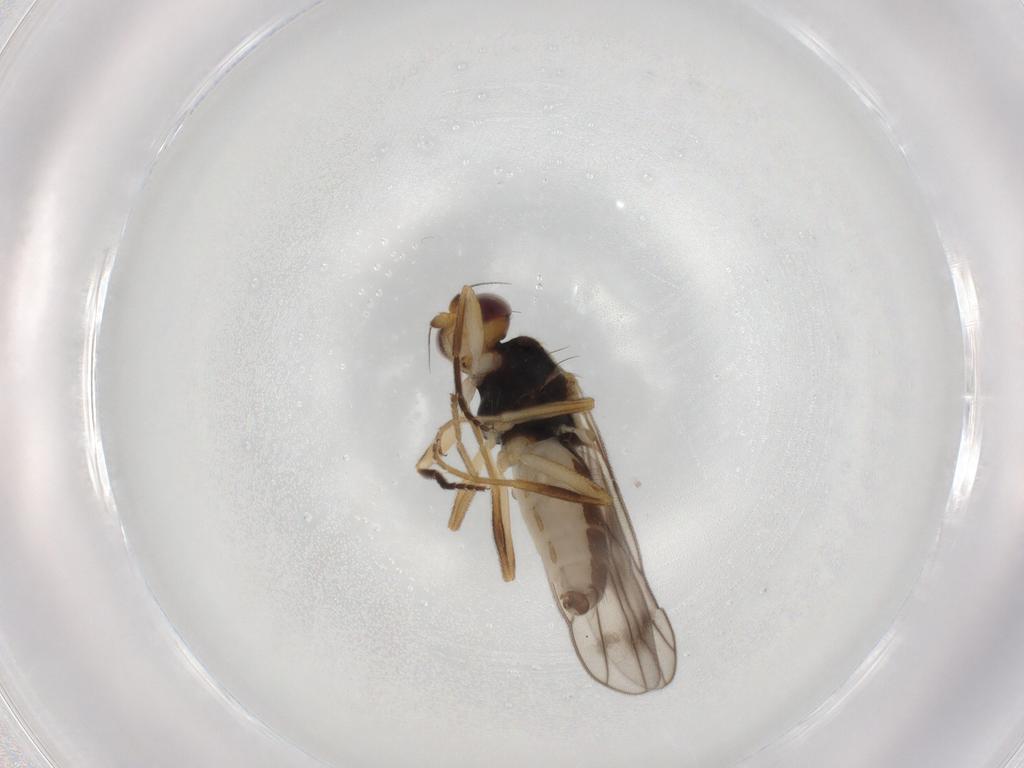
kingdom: Animalia
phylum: Arthropoda
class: Insecta
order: Diptera
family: Chloropidae
